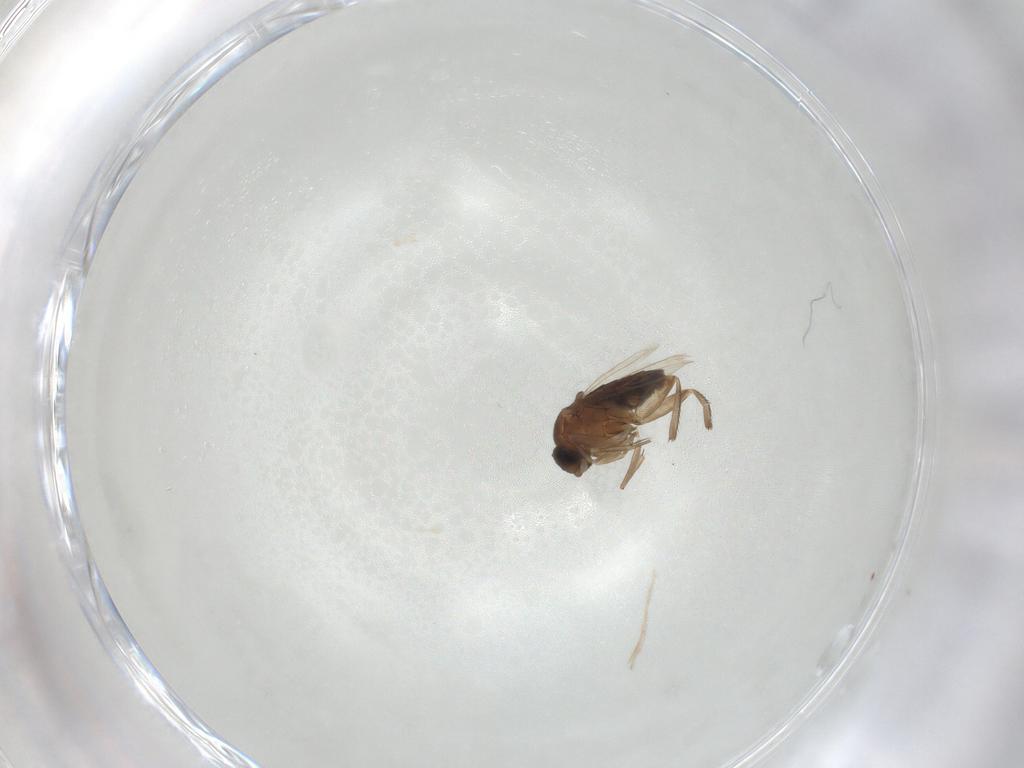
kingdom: Animalia
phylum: Arthropoda
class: Insecta
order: Diptera
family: Phoridae
